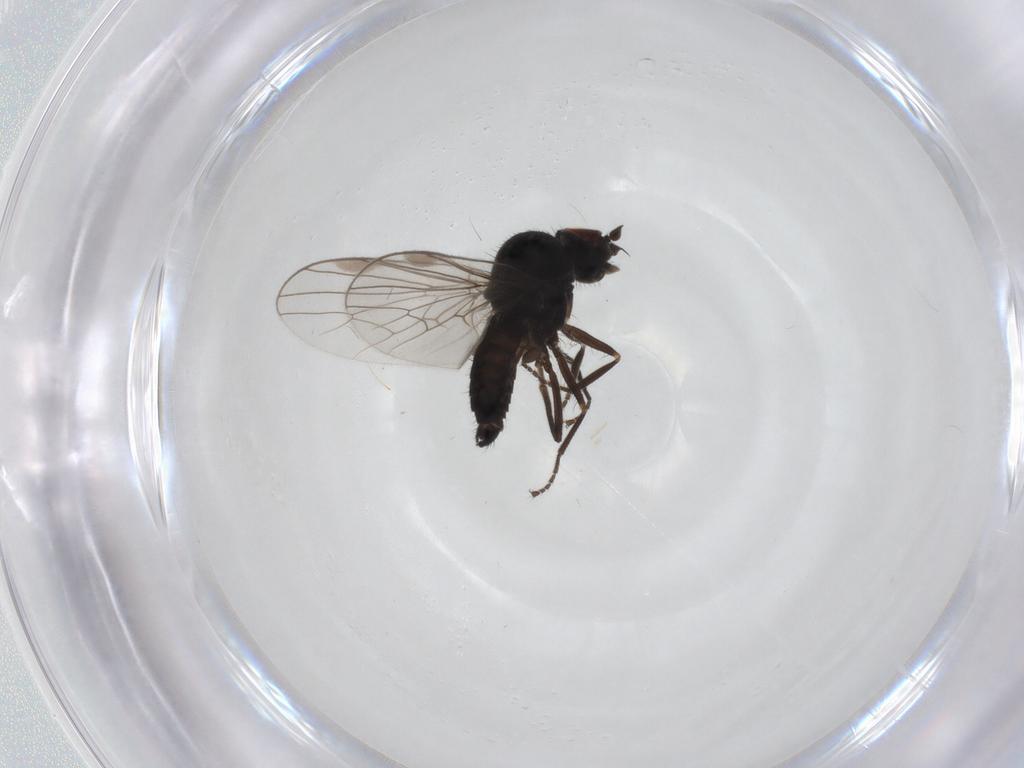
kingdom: Animalia
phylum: Arthropoda
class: Insecta
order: Diptera
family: Hybotidae
